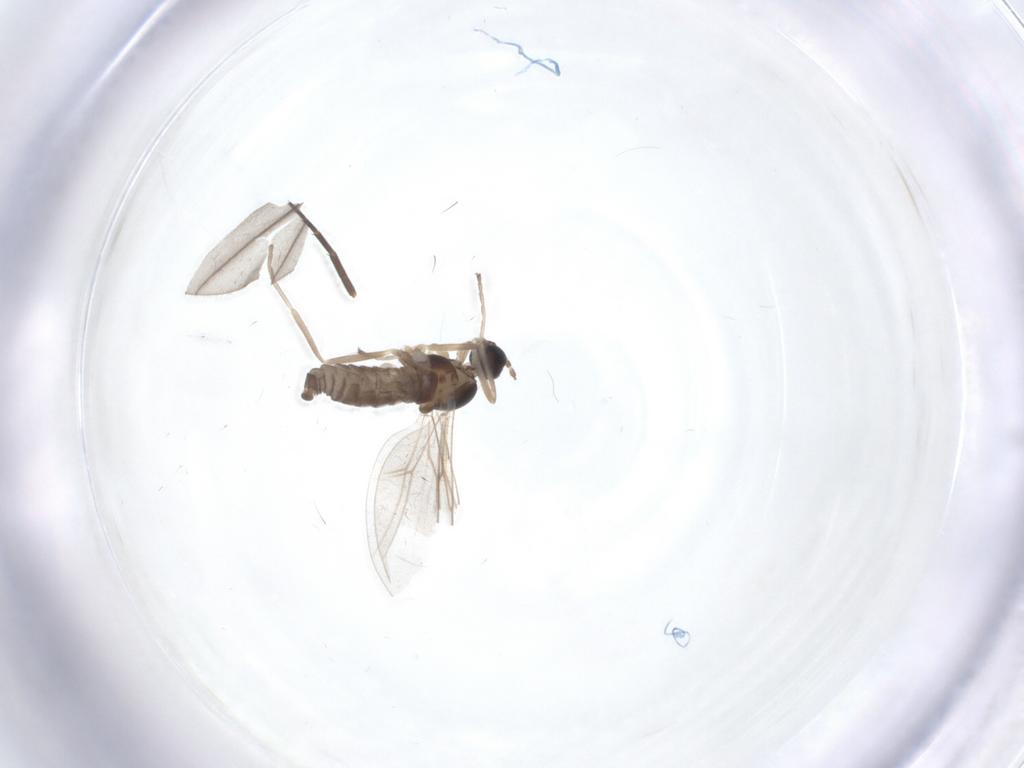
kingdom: Animalia
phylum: Arthropoda
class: Insecta
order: Diptera
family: Cecidomyiidae
